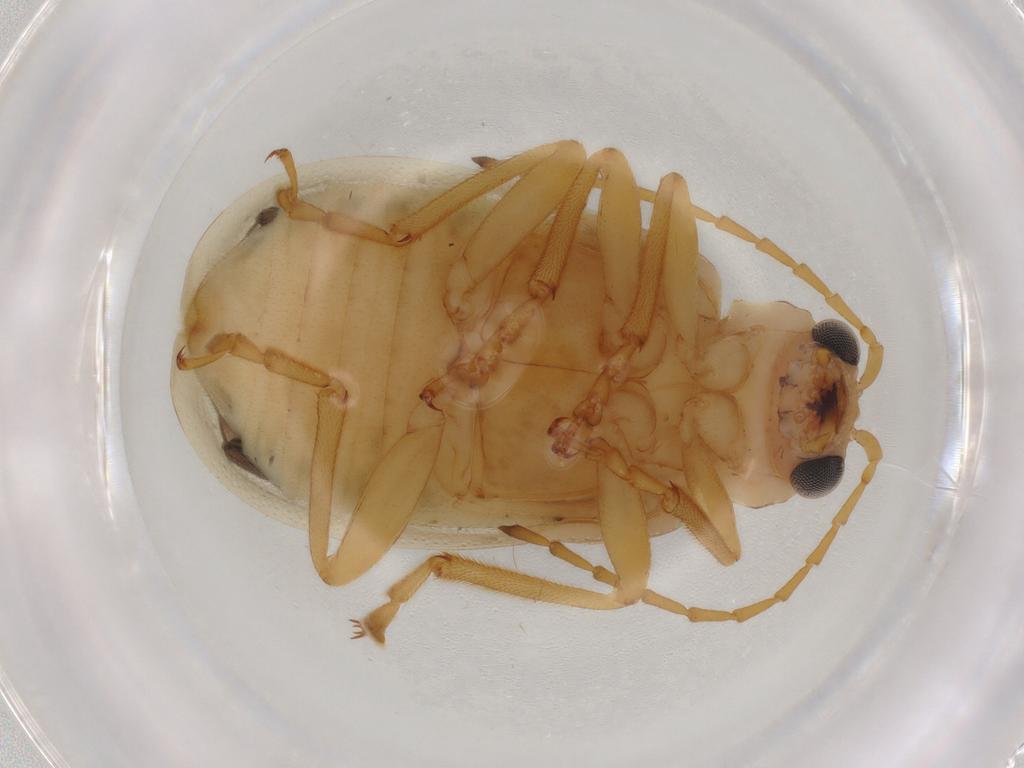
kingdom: Animalia
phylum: Arthropoda
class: Insecta
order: Coleoptera
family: Chrysomelidae
